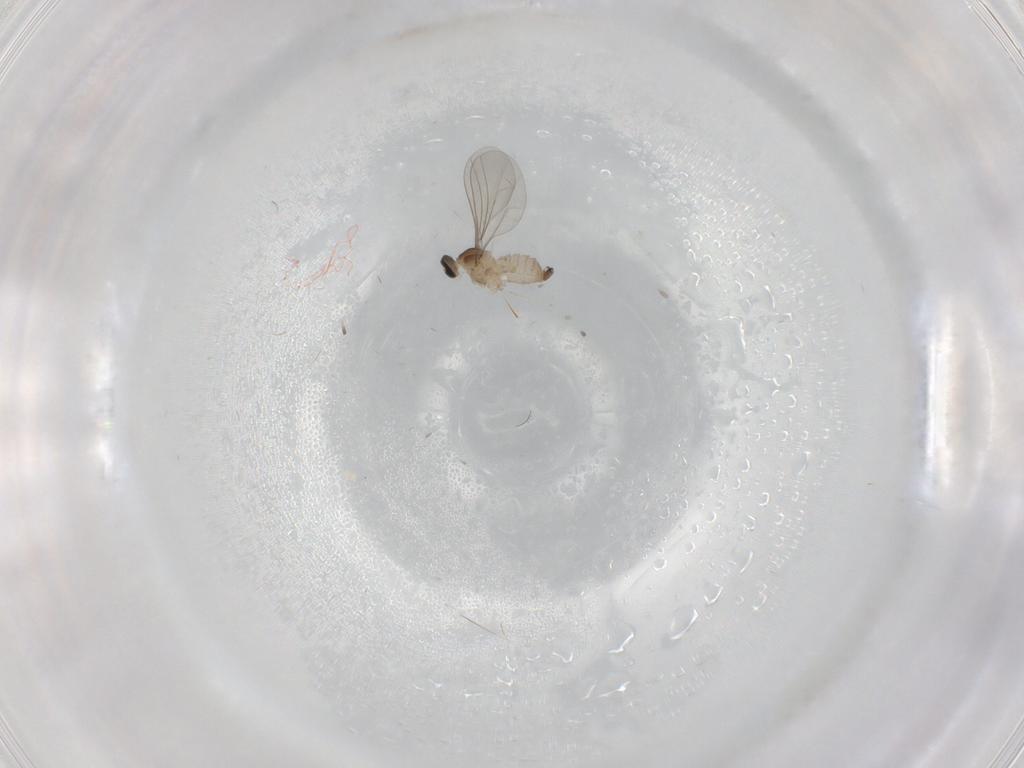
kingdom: Animalia
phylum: Arthropoda
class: Insecta
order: Diptera
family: Cecidomyiidae
